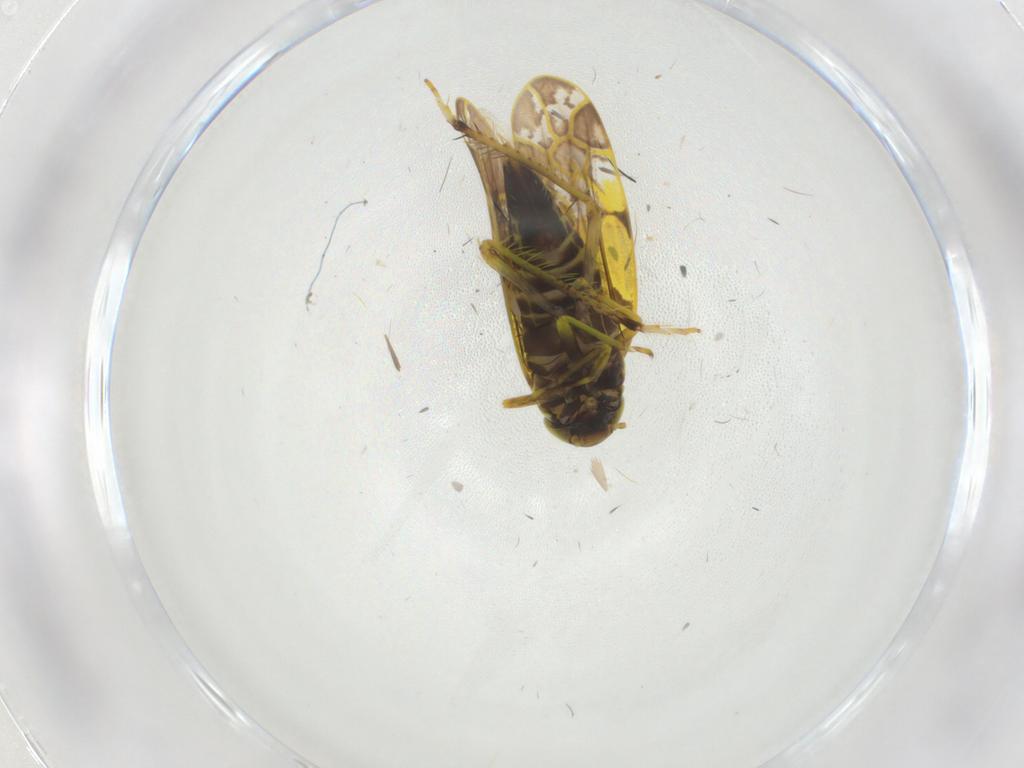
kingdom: Animalia
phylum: Arthropoda
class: Insecta
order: Hemiptera
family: Cicadellidae
